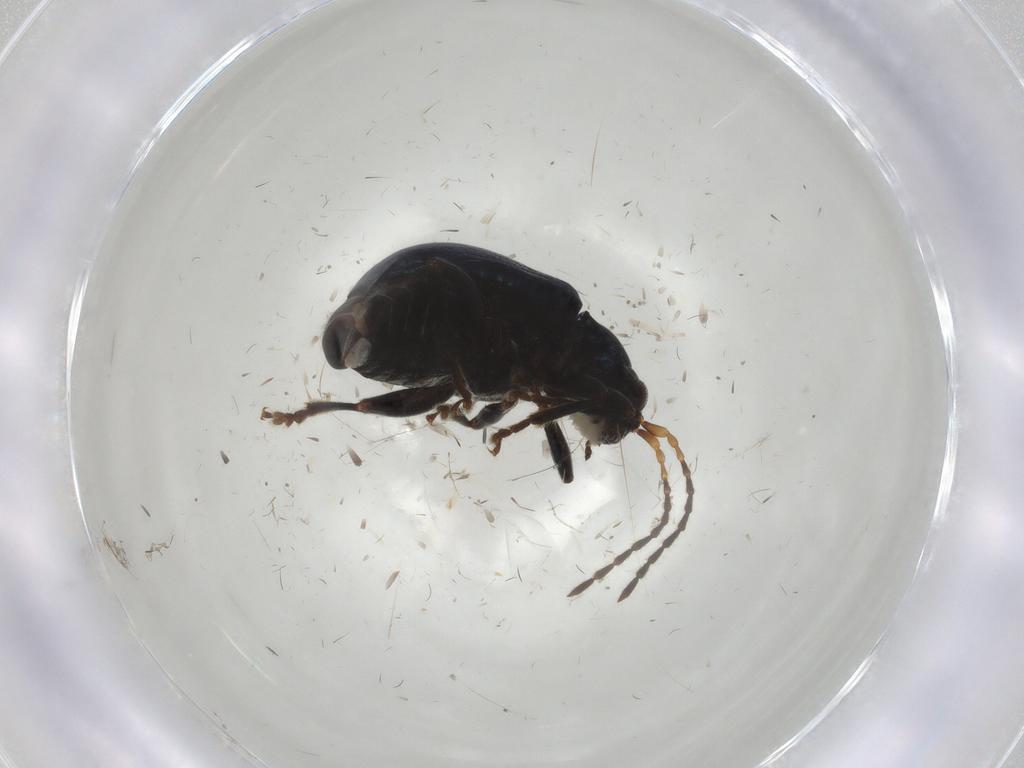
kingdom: Animalia
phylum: Arthropoda
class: Insecta
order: Coleoptera
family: Chrysomelidae
